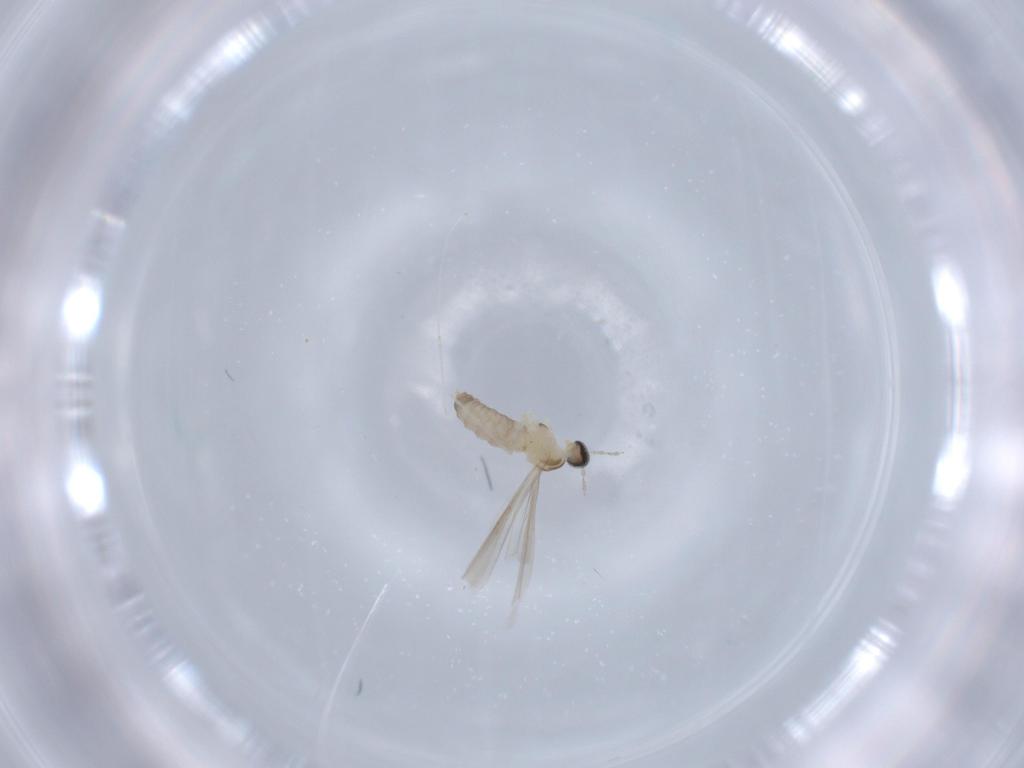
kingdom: Animalia
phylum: Arthropoda
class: Insecta
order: Diptera
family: Cecidomyiidae
